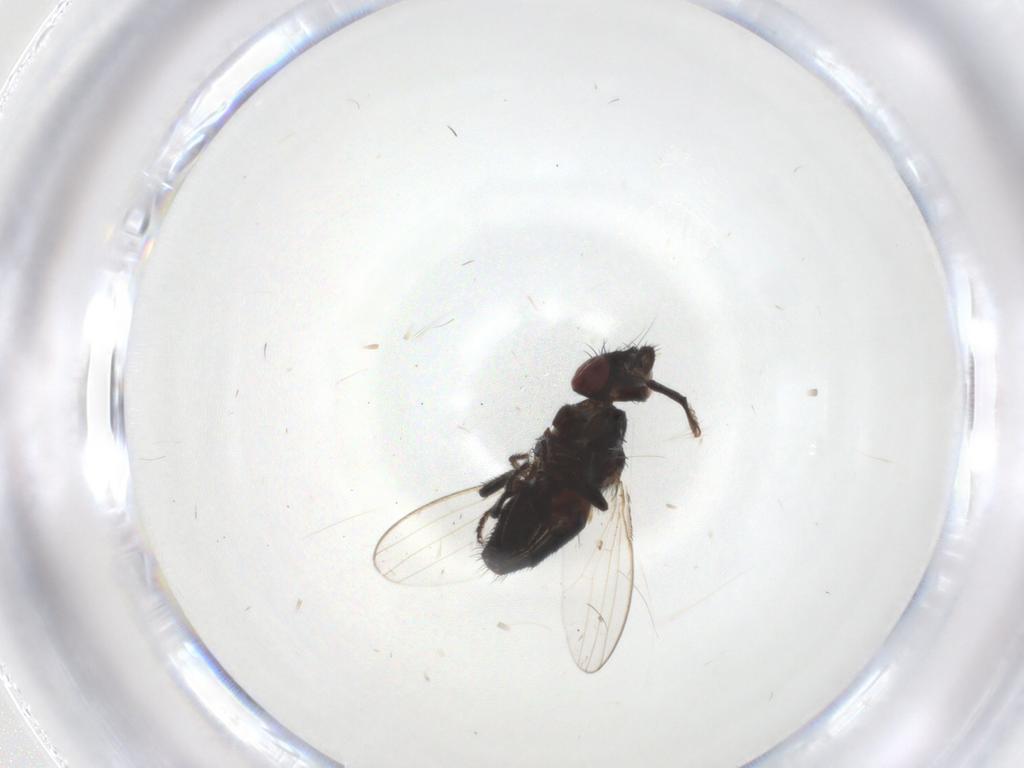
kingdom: Animalia
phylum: Arthropoda
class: Insecta
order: Diptera
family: Milichiidae
